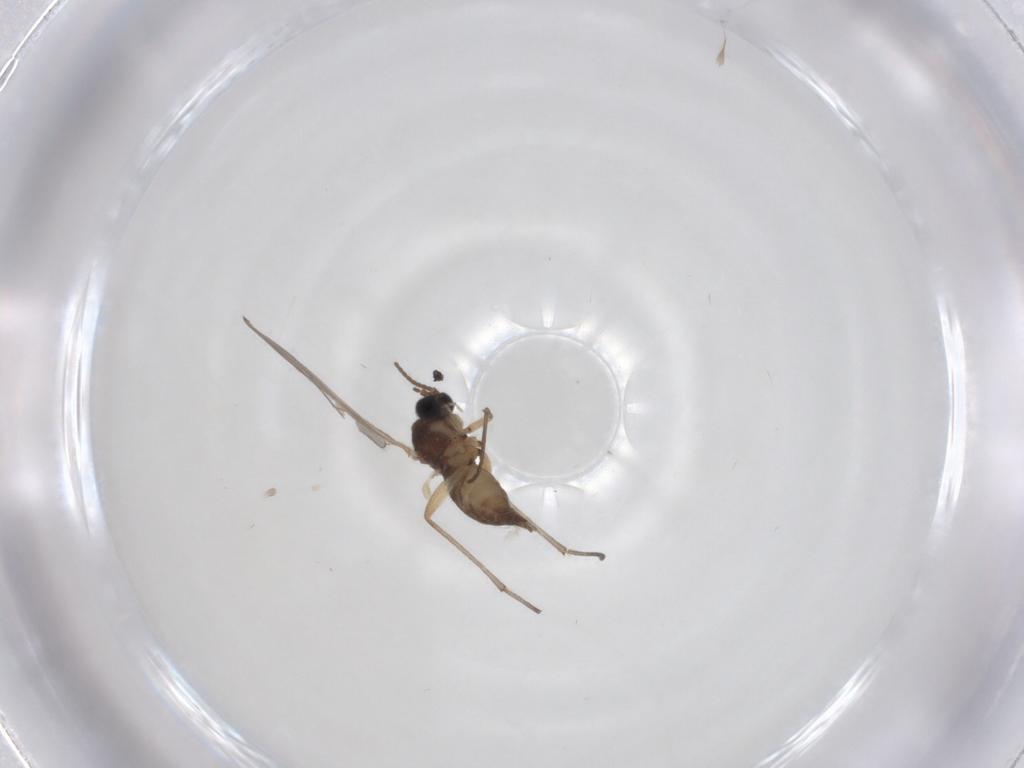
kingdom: Animalia
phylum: Arthropoda
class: Insecta
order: Diptera
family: Sciaridae
